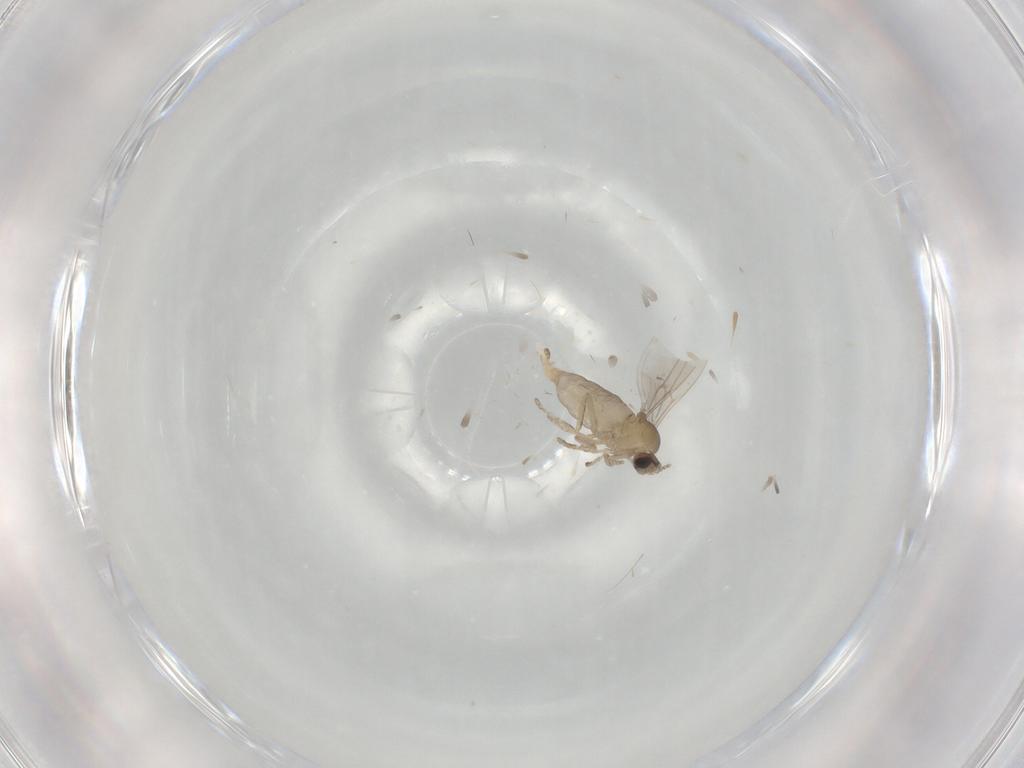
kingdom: Animalia
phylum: Arthropoda
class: Insecta
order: Diptera
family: Cecidomyiidae
